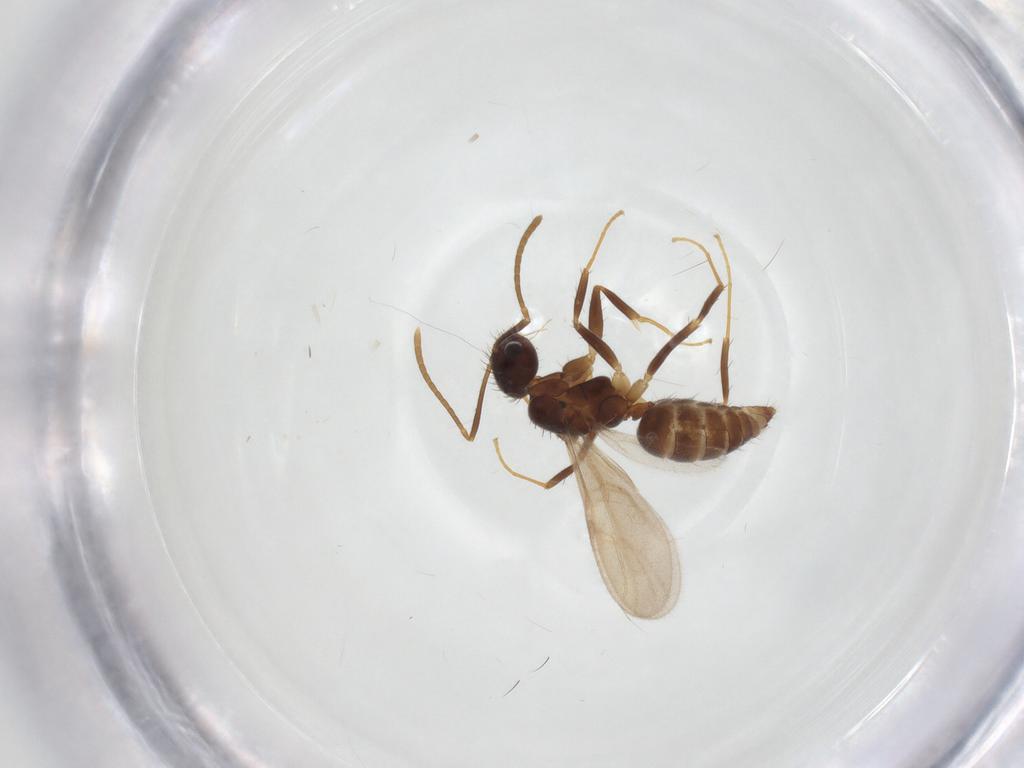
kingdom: Animalia
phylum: Arthropoda
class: Insecta
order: Hymenoptera
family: Formicidae
